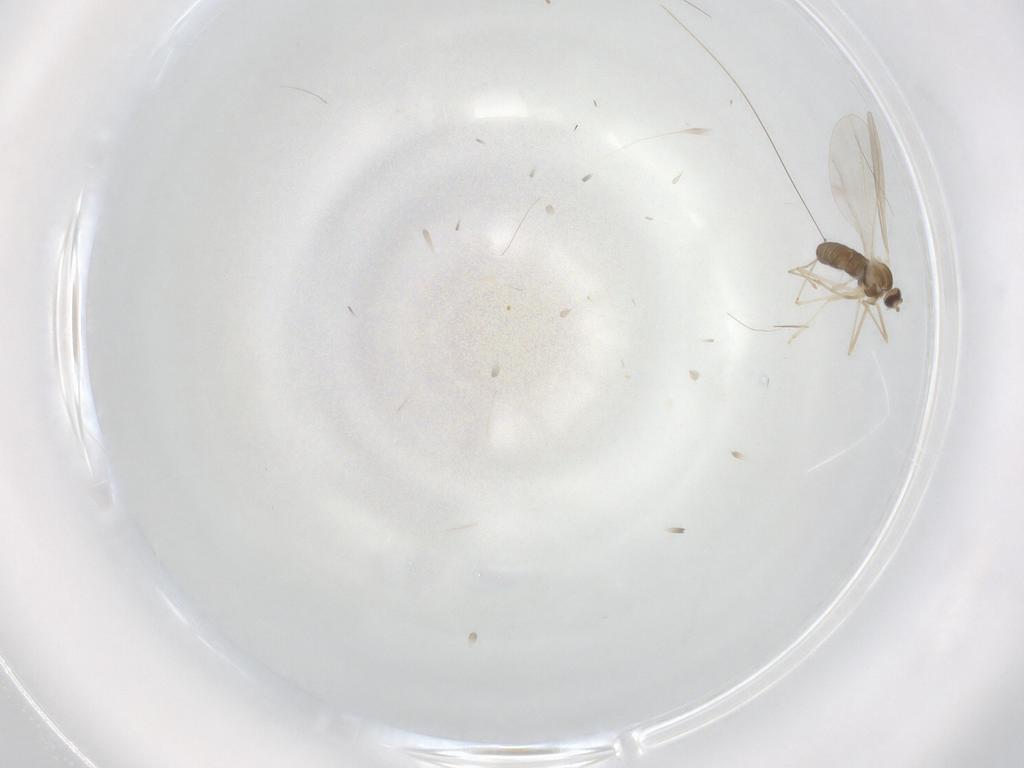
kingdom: Animalia
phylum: Arthropoda
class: Insecta
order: Diptera
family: Cecidomyiidae
